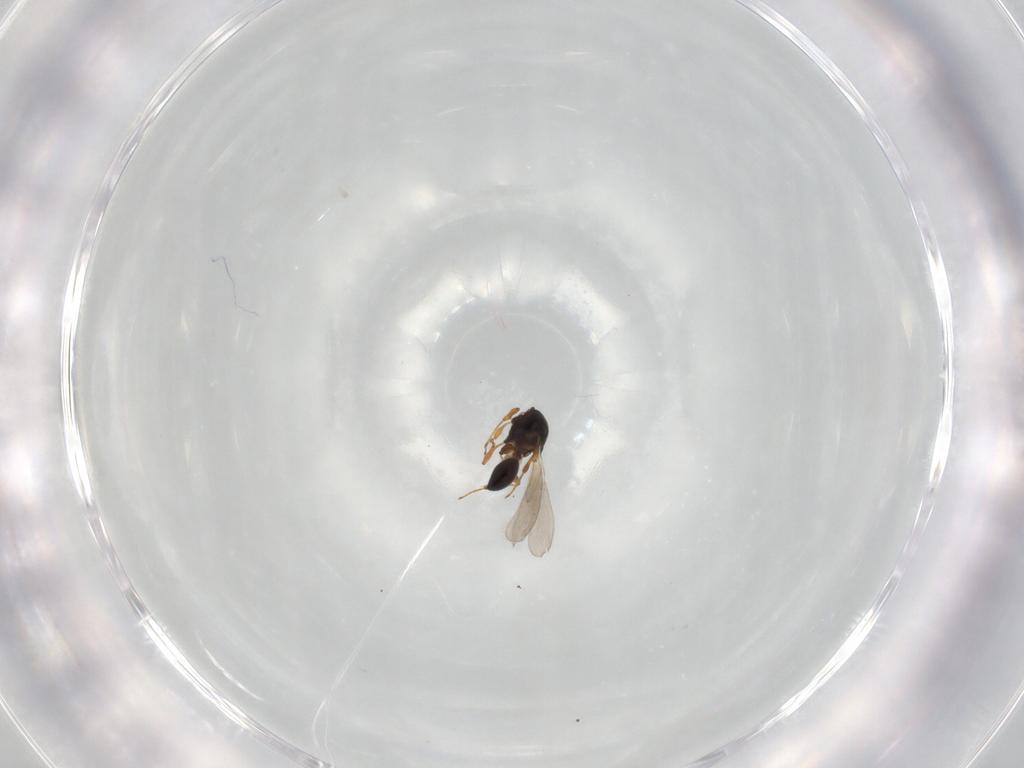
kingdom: Animalia
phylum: Arthropoda
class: Insecta
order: Hymenoptera
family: Platygastridae
